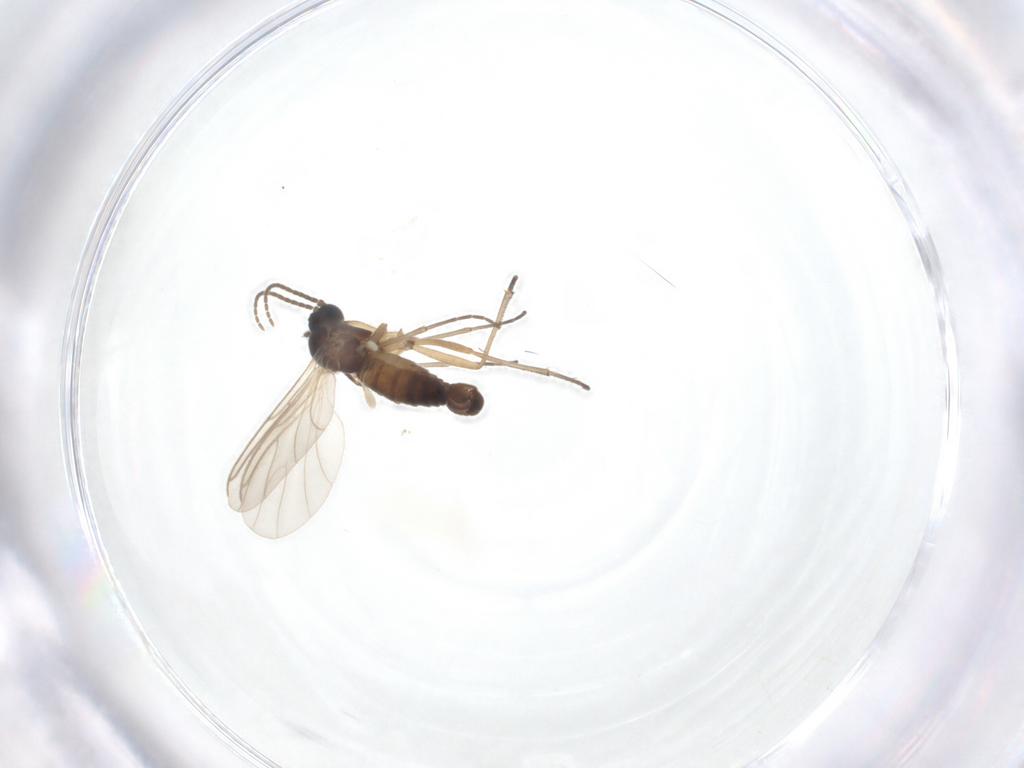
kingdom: Animalia
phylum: Arthropoda
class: Insecta
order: Diptera
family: Milichiidae
